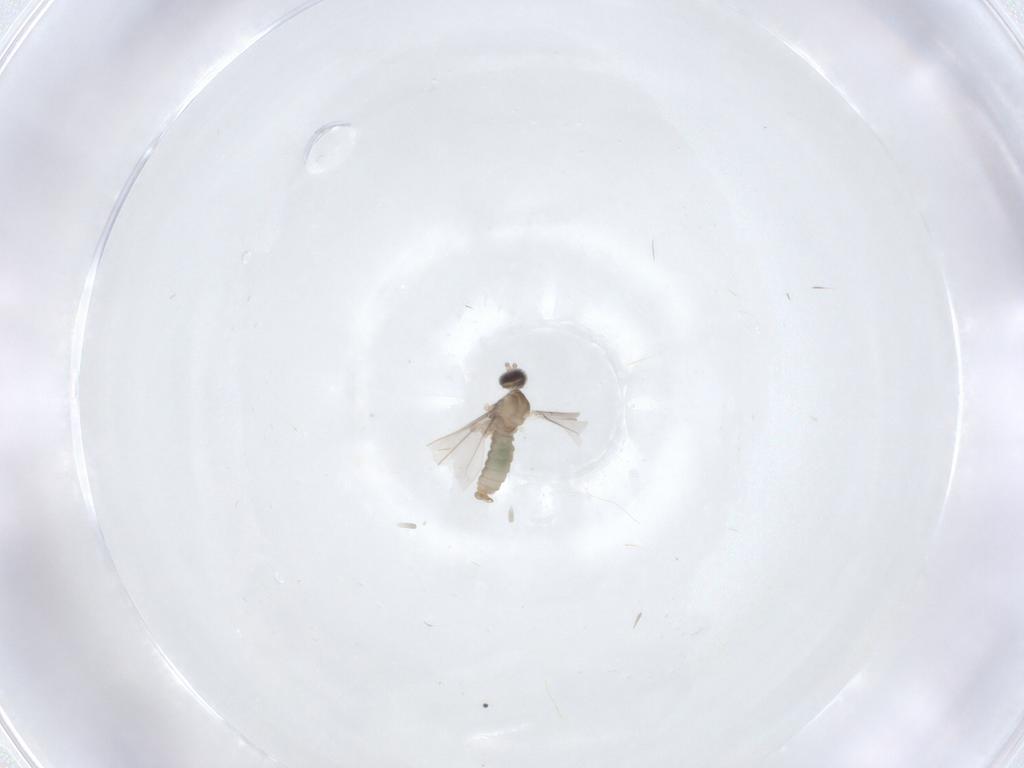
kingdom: Animalia
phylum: Arthropoda
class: Insecta
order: Diptera
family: Cecidomyiidae
